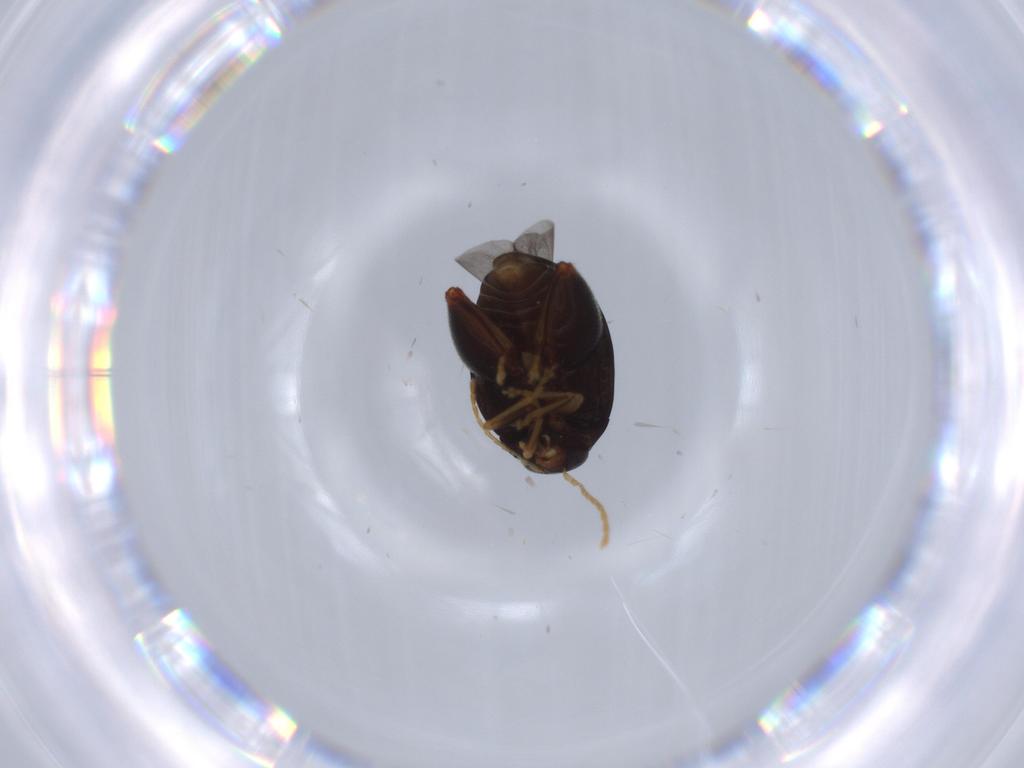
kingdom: Animalia
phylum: Arthropoda
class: Insecta
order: Coleoptera
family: Chrysomelidae
